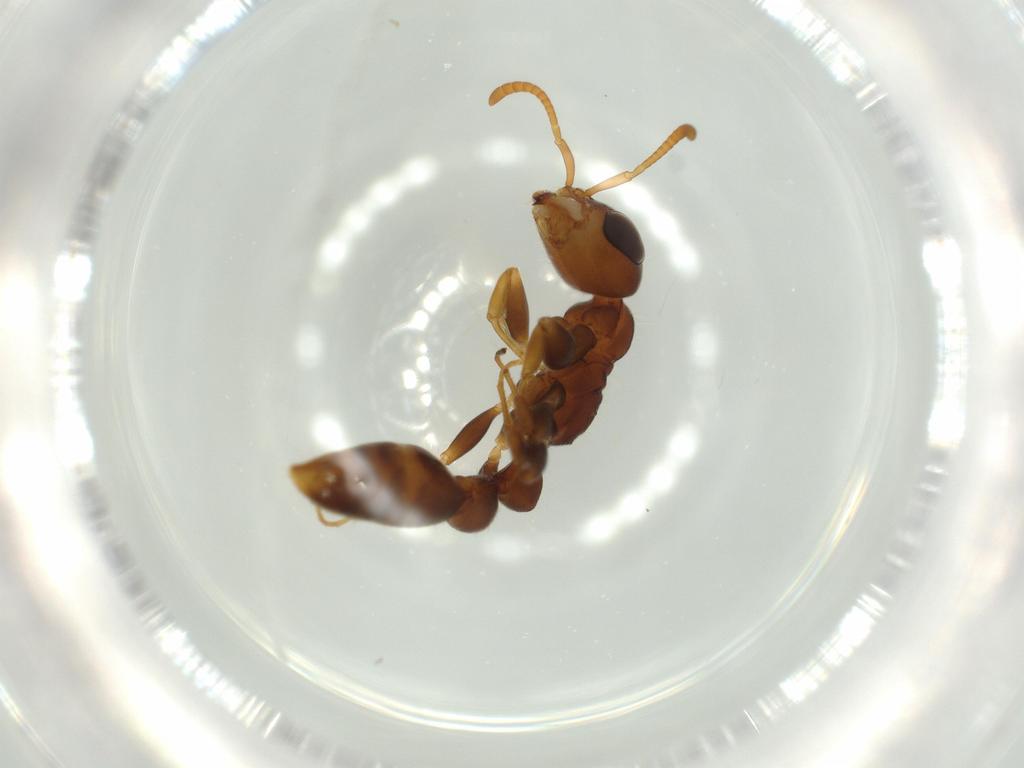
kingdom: Animalia
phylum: Arthropoda
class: Insecta
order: Hymenoptera
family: Formicidae
